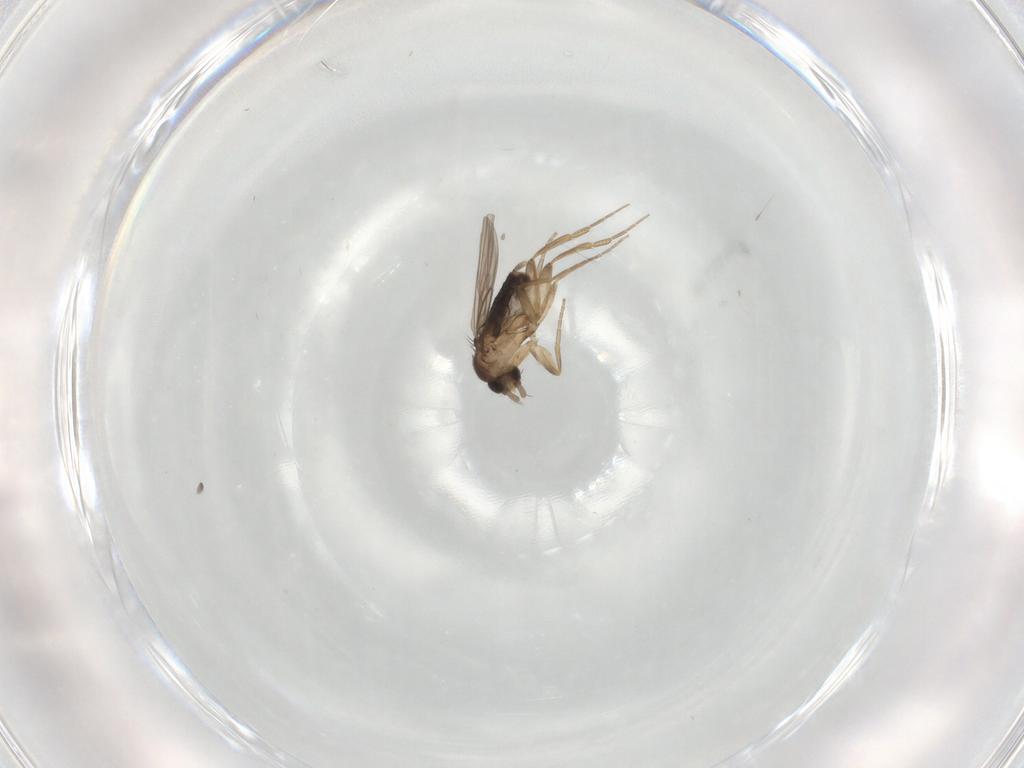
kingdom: Animalia
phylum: Arthropoda
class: Insecta
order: Diptera
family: Phoridae
